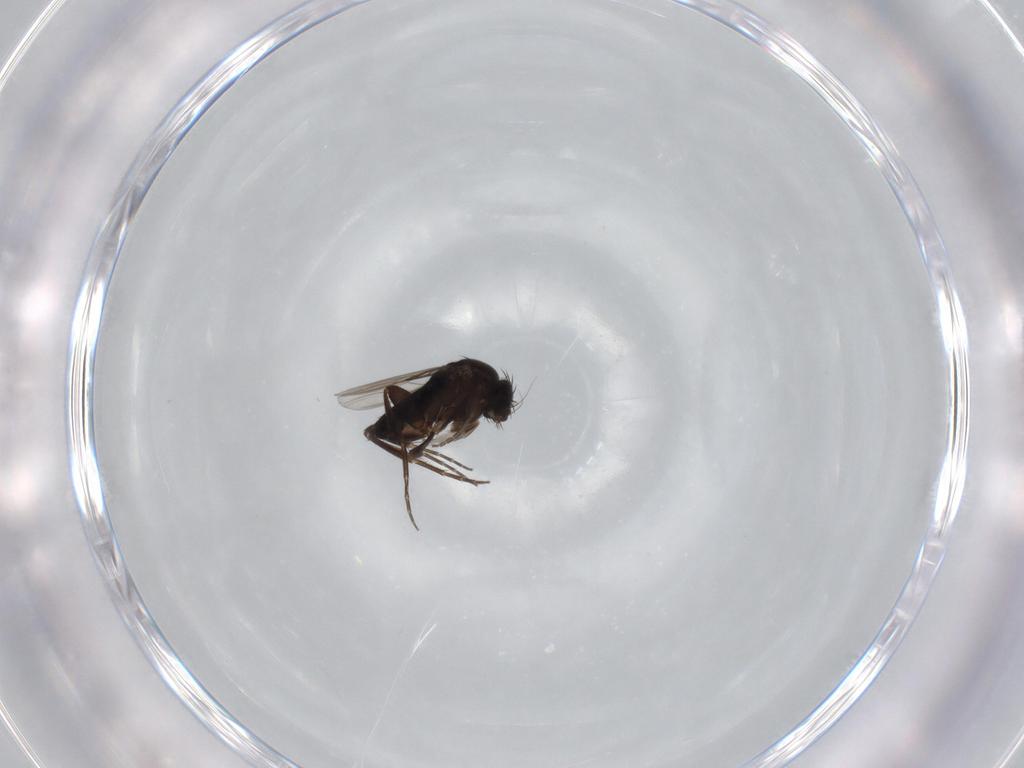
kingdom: Animalia
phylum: Arthropoda
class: Insecta
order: Diptera
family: Phoridae
